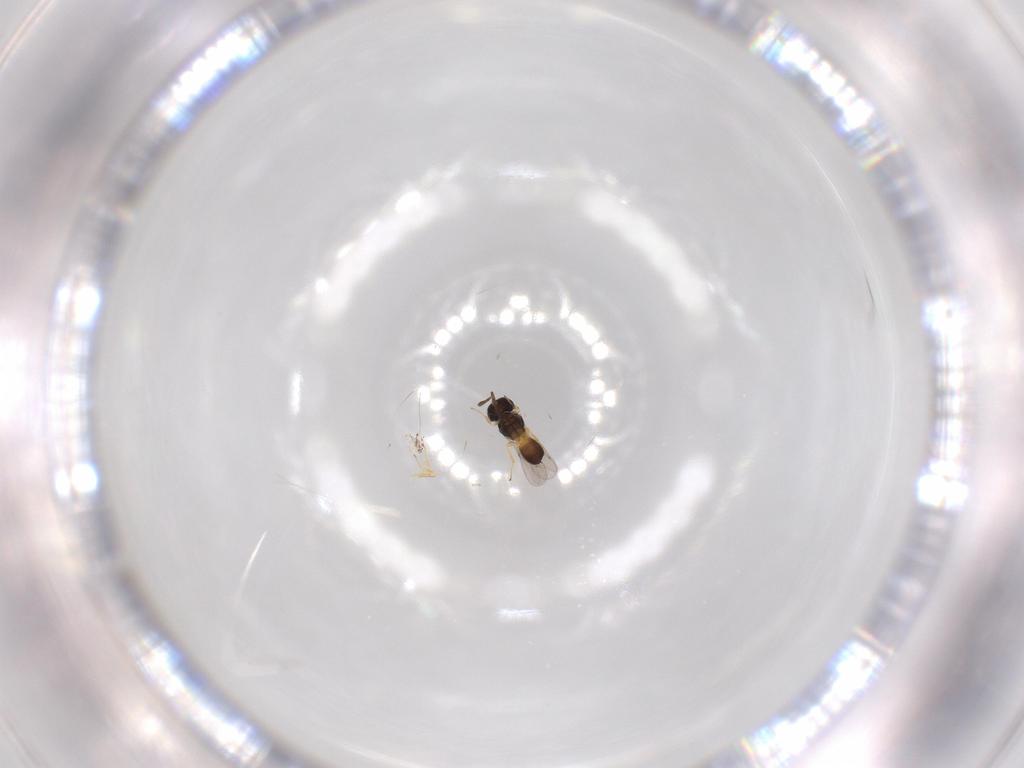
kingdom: Animalia
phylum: Arthropoda
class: Insecta
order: Hymenoptera
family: Scelionidae
